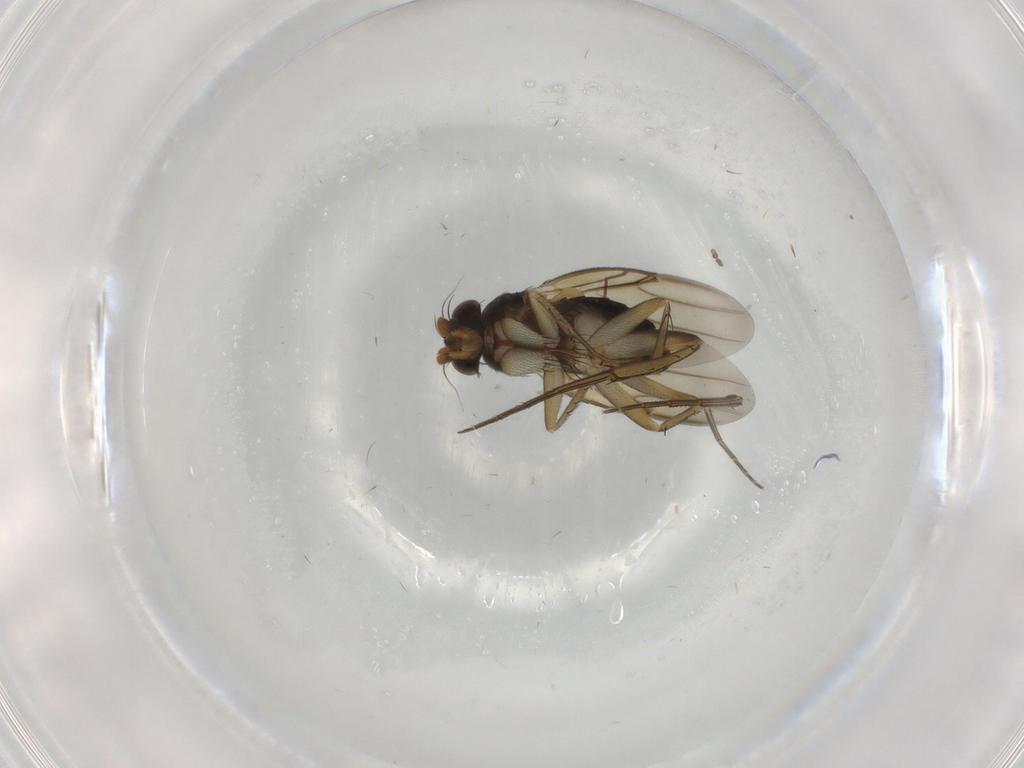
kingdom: Animalia
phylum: Arthropoda
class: Insecta
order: Diptera
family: Phoridae
